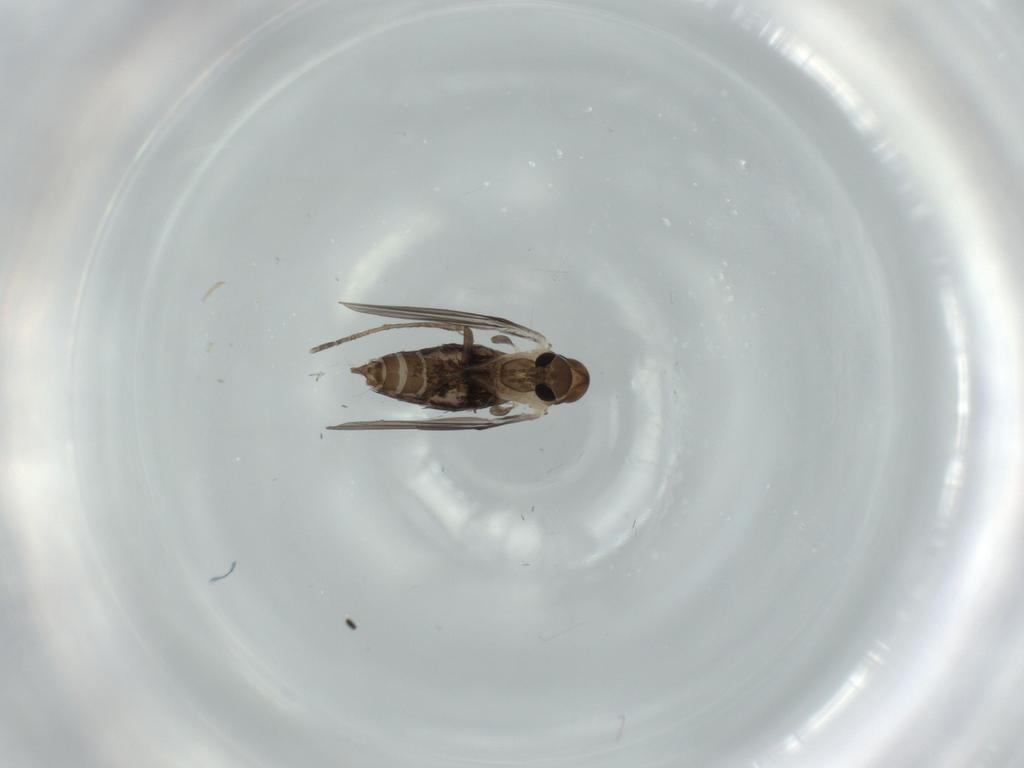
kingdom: Animalia
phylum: Arthropoda
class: Insecta
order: Diptera
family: Psychodidae
